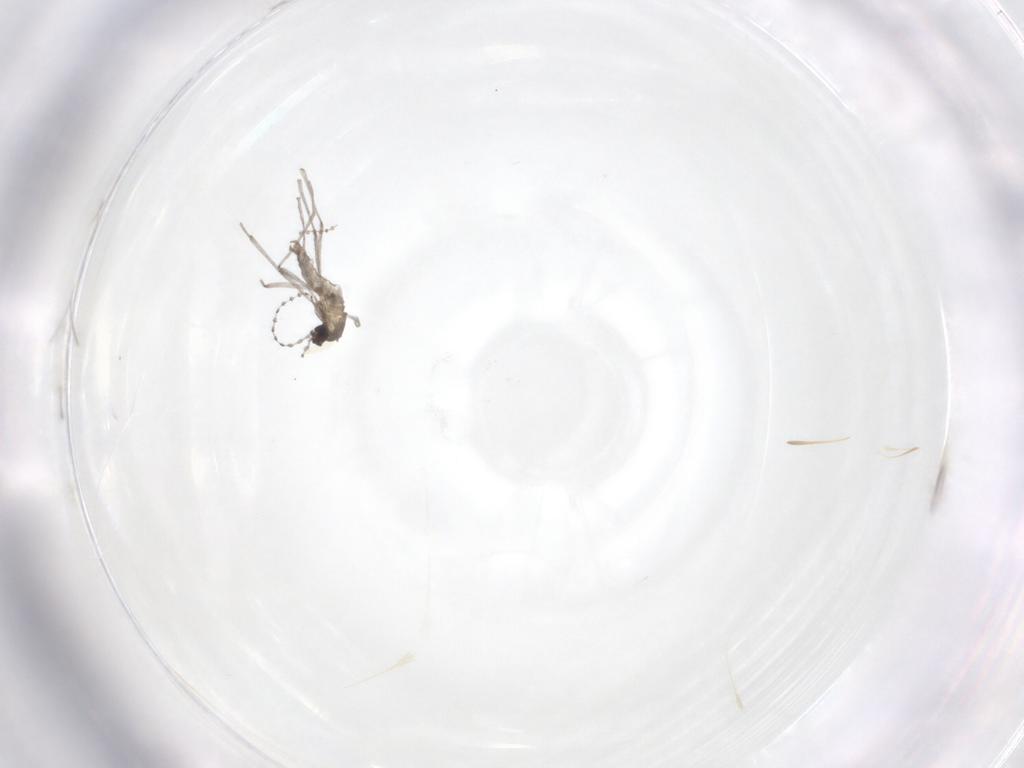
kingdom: Animalia
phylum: Arthropoda
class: Insecta
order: Diptera
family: Cecidomyiidae
